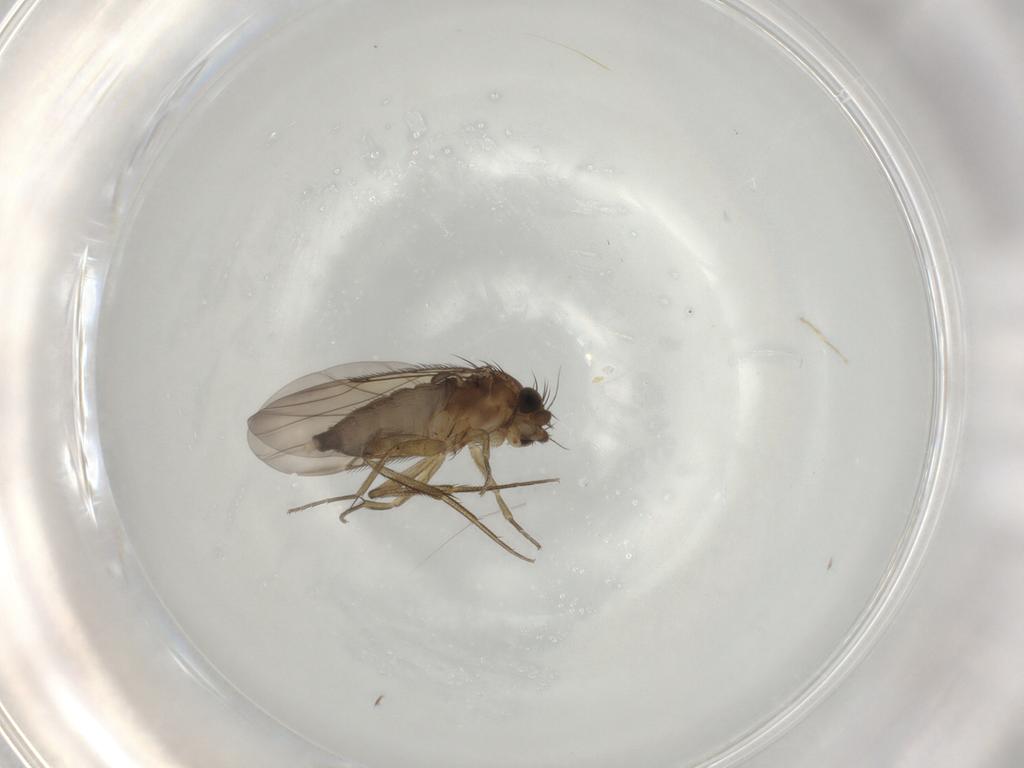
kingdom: Animalia
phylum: Arthropoda
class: Insecta
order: Diptera
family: Phoridae
